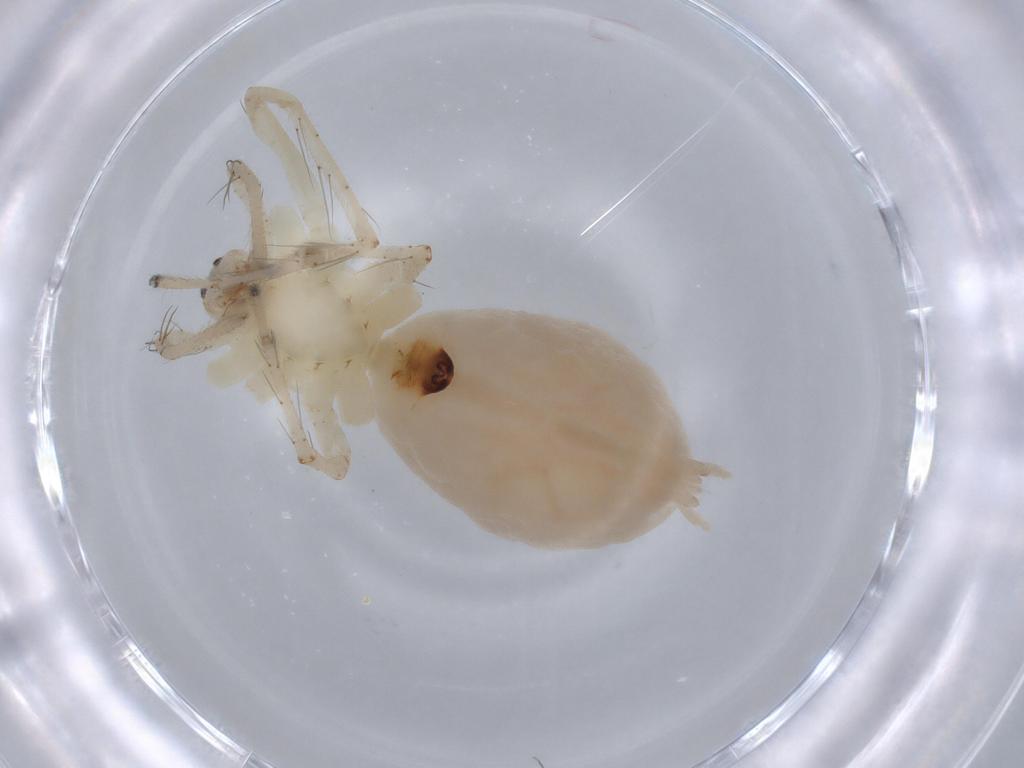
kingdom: Animalia
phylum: Arthropoda
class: Arachnida
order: Araneae
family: Anyphaenidae
